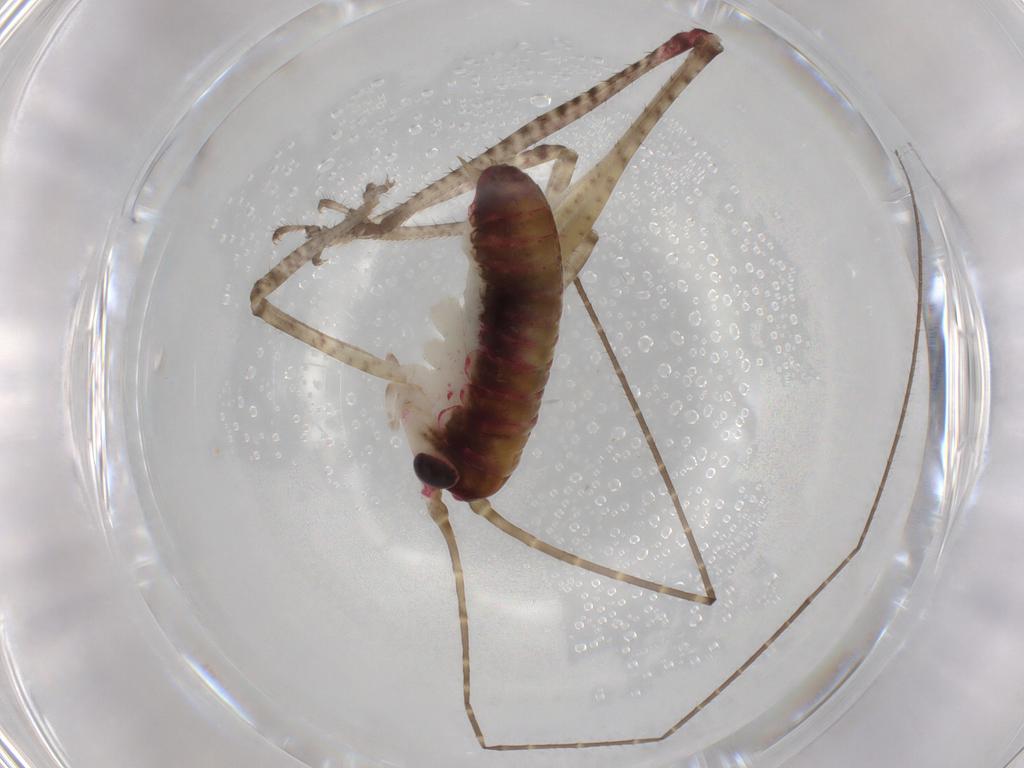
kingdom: Animalia
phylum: Arthropoda
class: Insecta
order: Orthoptera
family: Tettigoniidae
